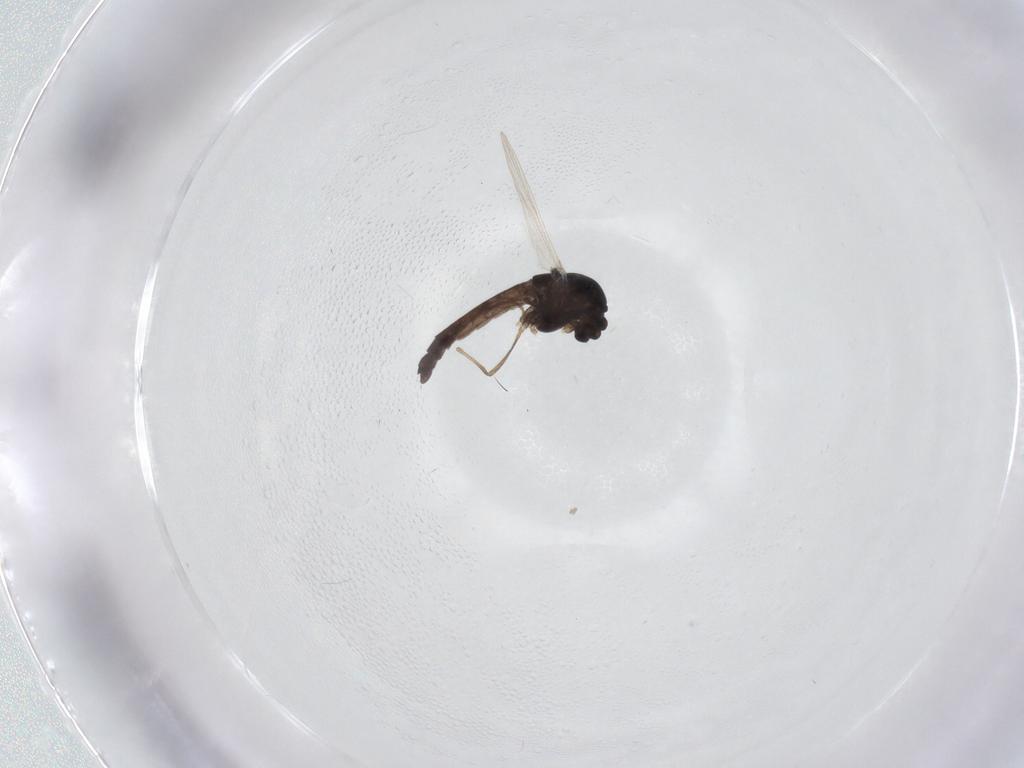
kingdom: Animalia
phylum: Arthropoda
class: Insecta
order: Diptera
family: Chironomidae
